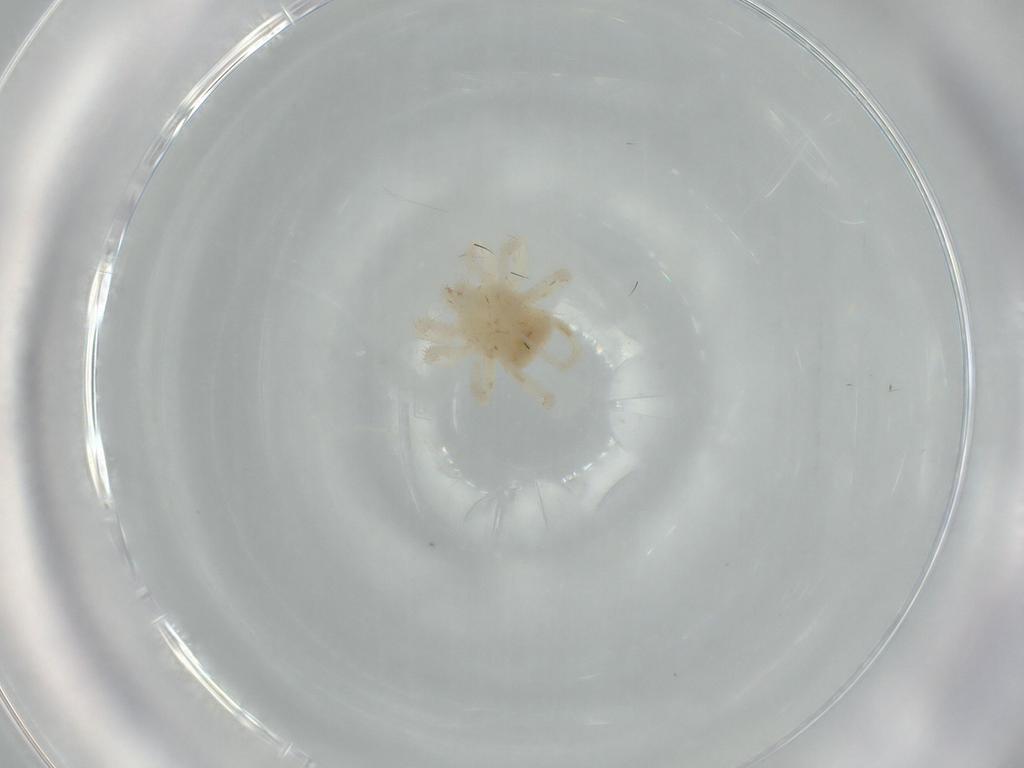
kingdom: Animalia
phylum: Arthropoda
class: Arachnida
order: Trombidiformes
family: Anystidae
